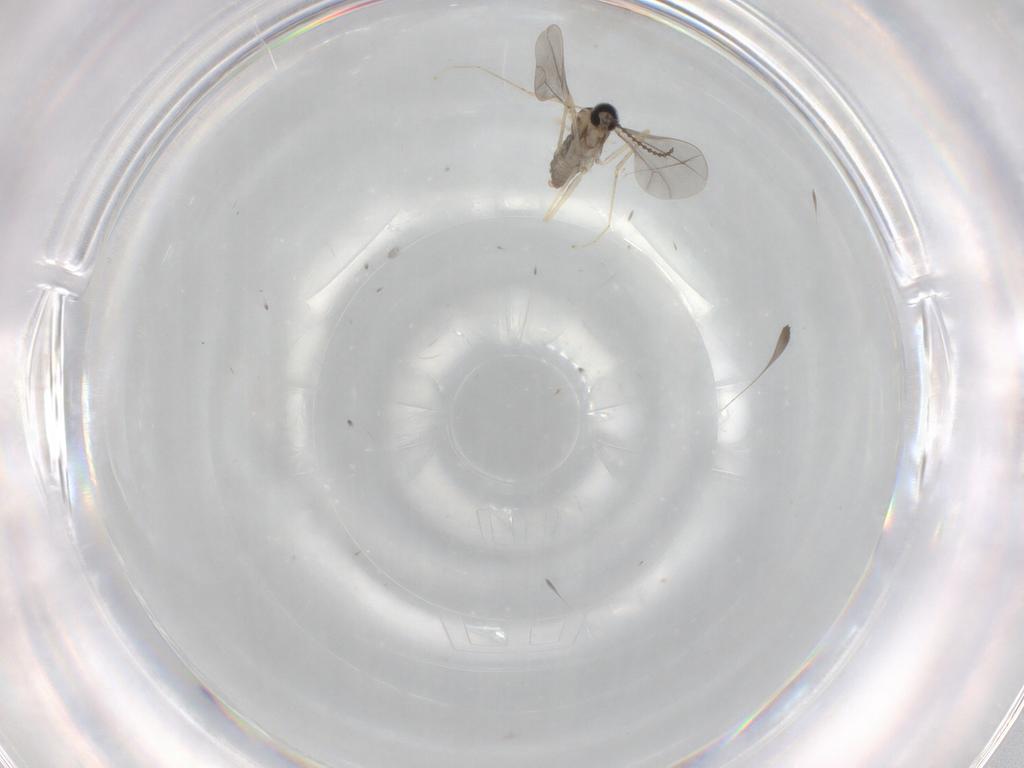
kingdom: Animalia
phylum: Arthropoda
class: Insecta
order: Diptera
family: Cecidomyiidae
